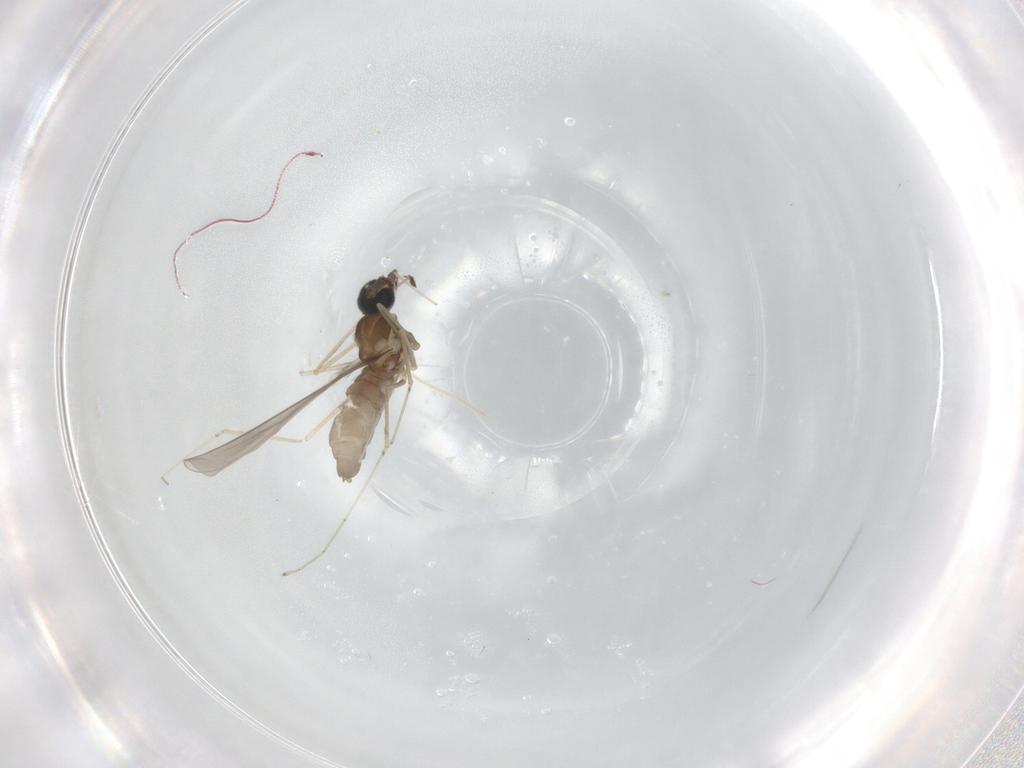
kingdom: Animalia
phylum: Arthropoda
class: Insecta
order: Diptera
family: Cecidomyiidae
